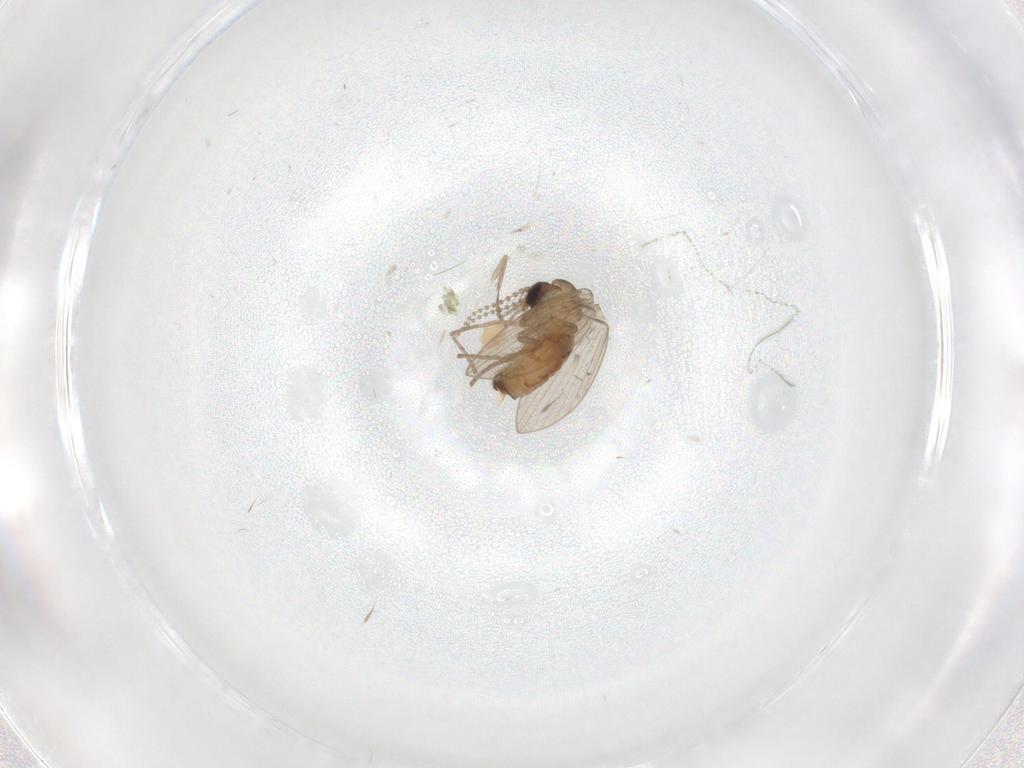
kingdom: Animalia
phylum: Arthropoda
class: Insecta
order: Diptera
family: Psychodidae
